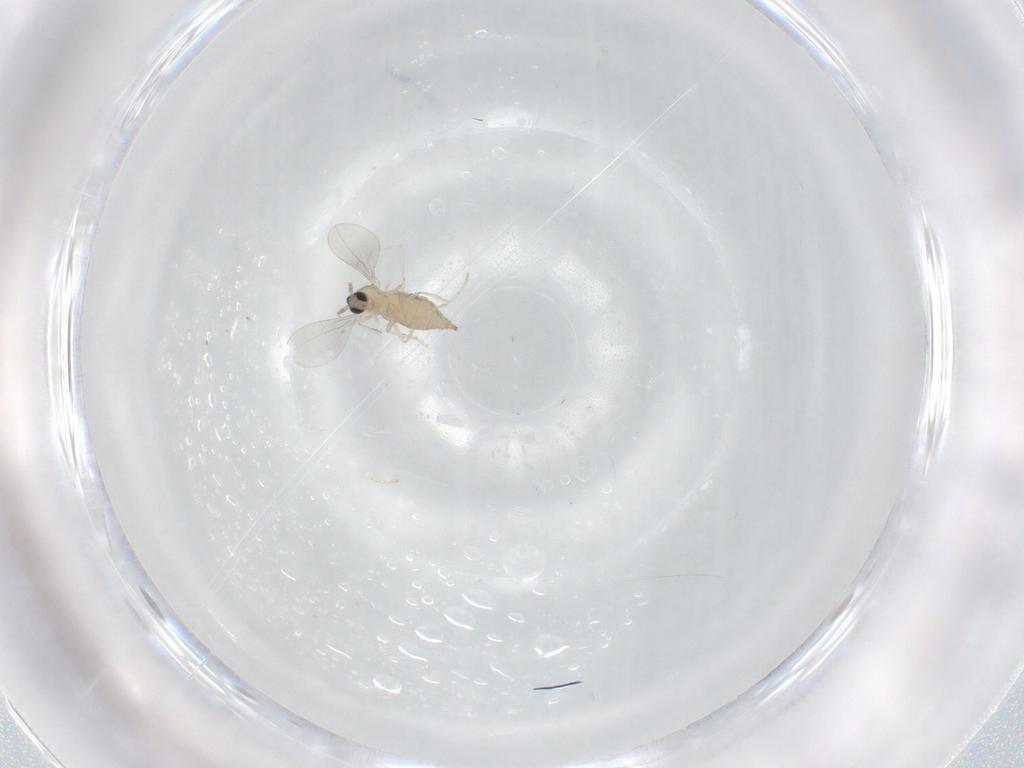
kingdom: Animalia
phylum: Arthropoda
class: Insecta
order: Diptera
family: Cecidomyiidae
